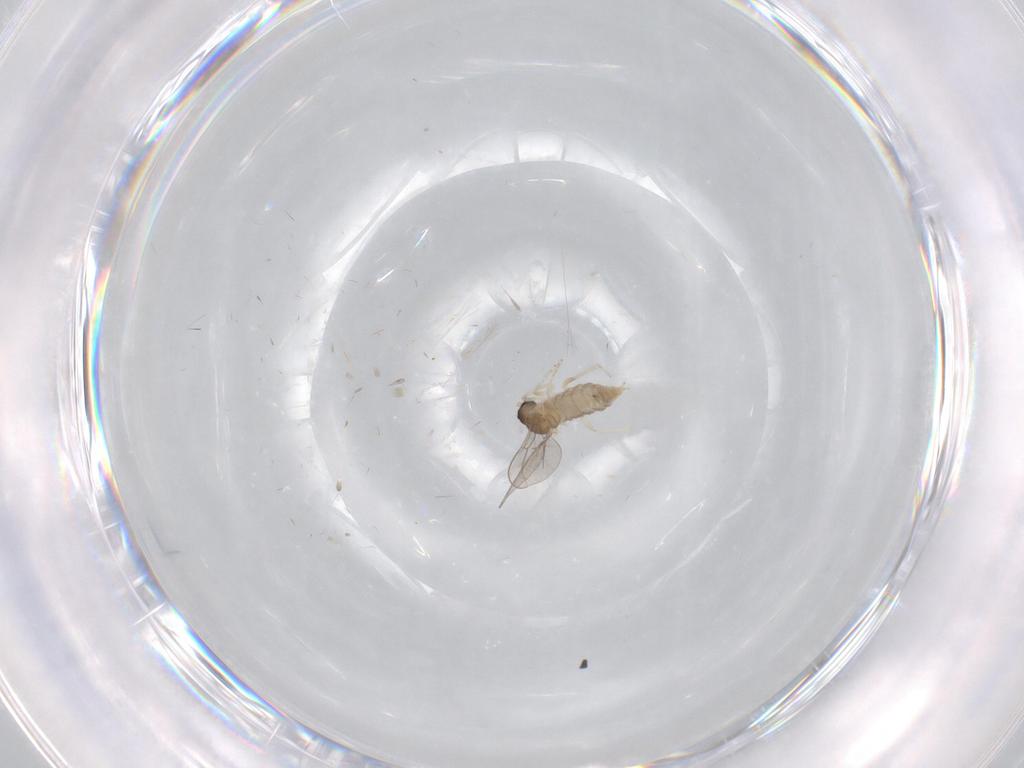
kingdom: Animalia
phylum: Arthropoda
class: Insecta
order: Diptera
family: Cecidomyiidae
